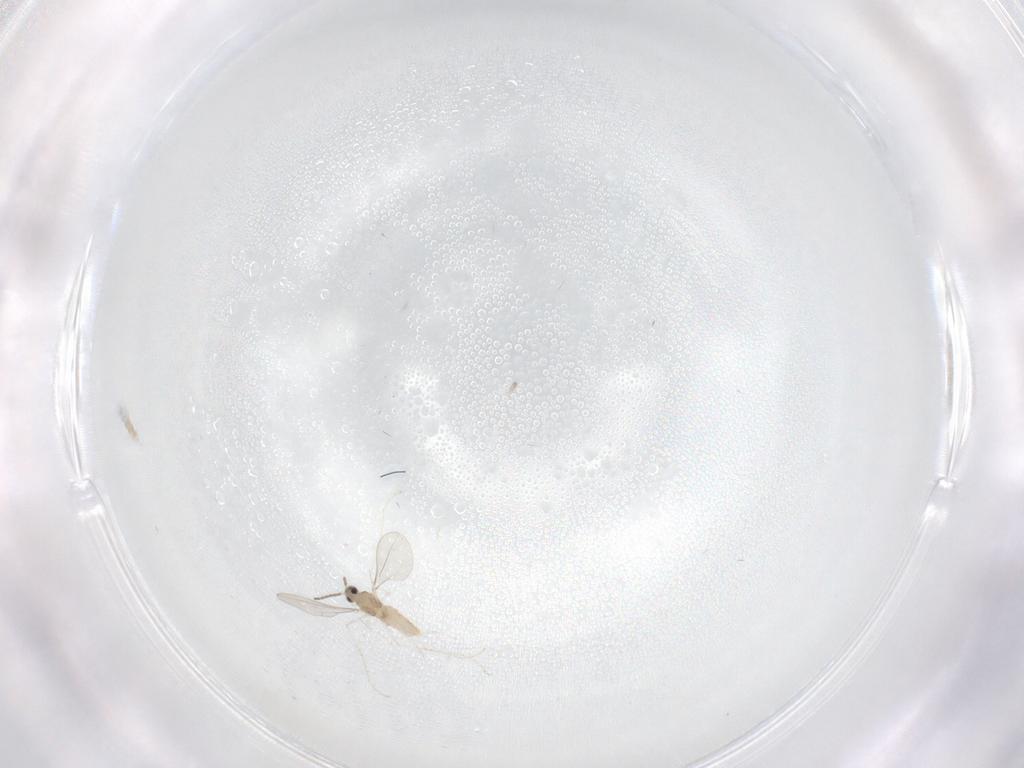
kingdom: Animalia
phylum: Arthropoda
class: Insecta
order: Diptera
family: Cecidomyiidae
